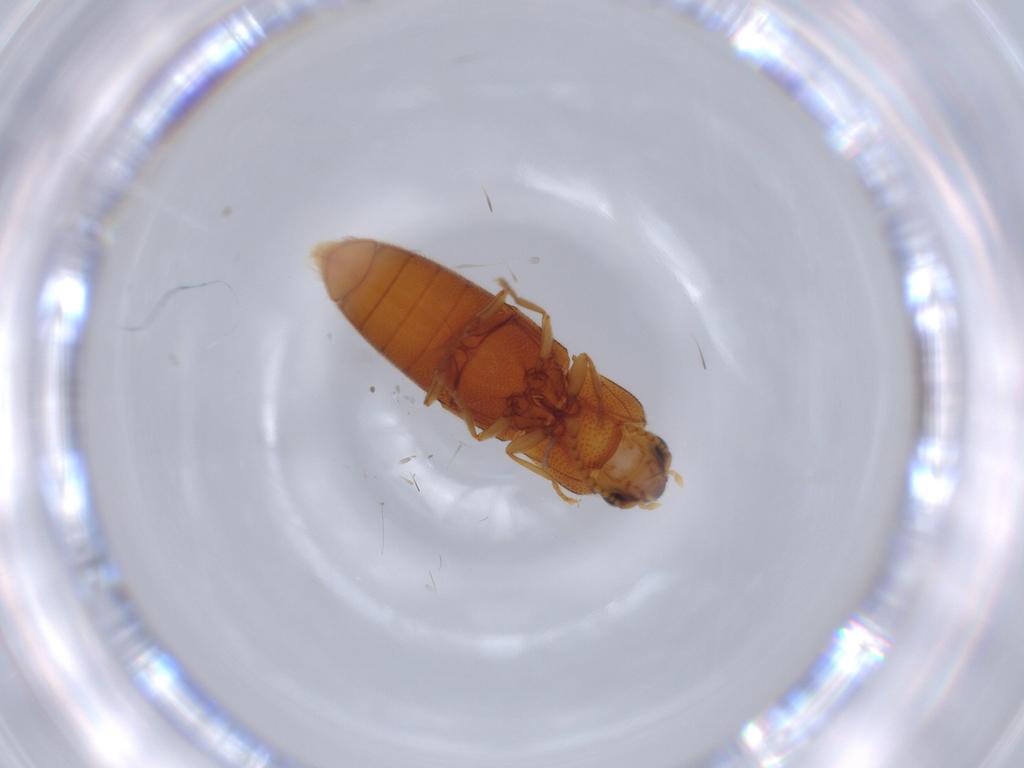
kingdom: Animalia
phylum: Arthropoda
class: Insecta
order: Coleoptera
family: Elateridae
